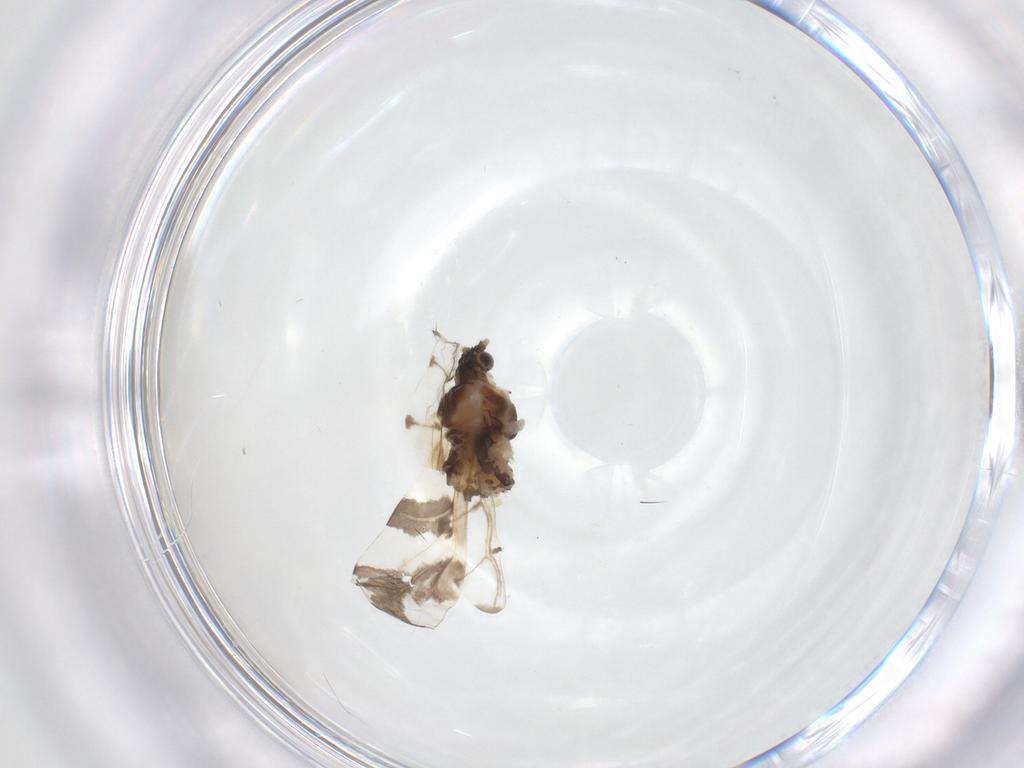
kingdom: Animalia
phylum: Arthropoda
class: Insecta
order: Hemiptera
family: Aphididae
